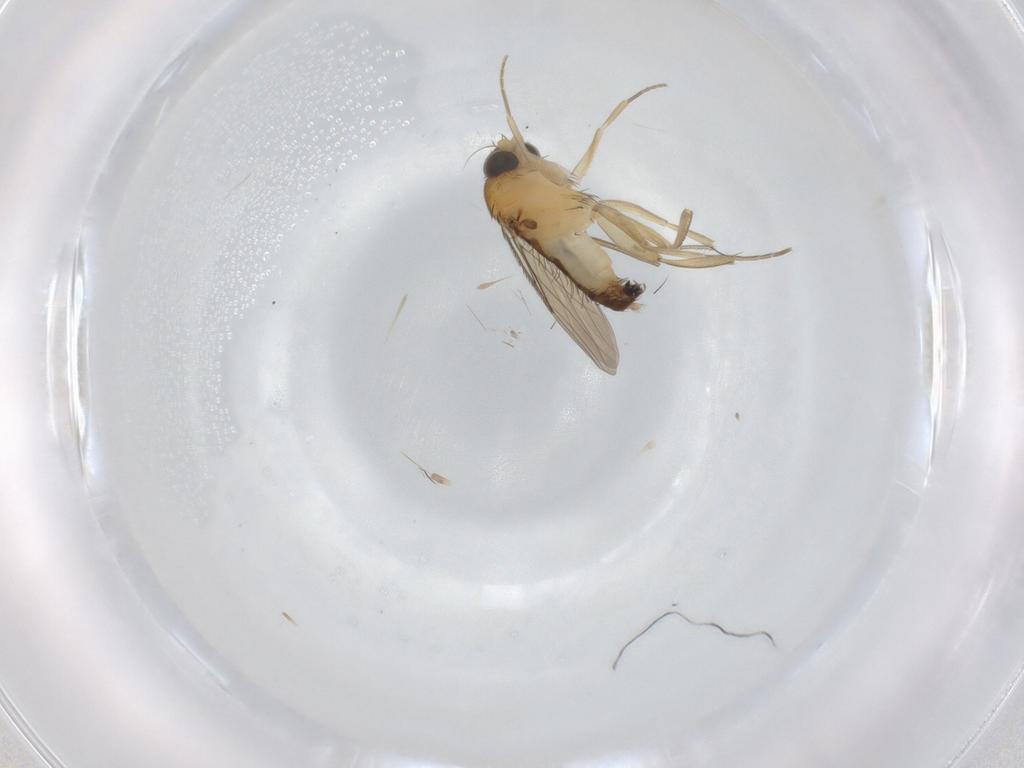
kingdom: Animalia
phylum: Arthropoda
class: Insecta
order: Diptera
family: Phoridae
